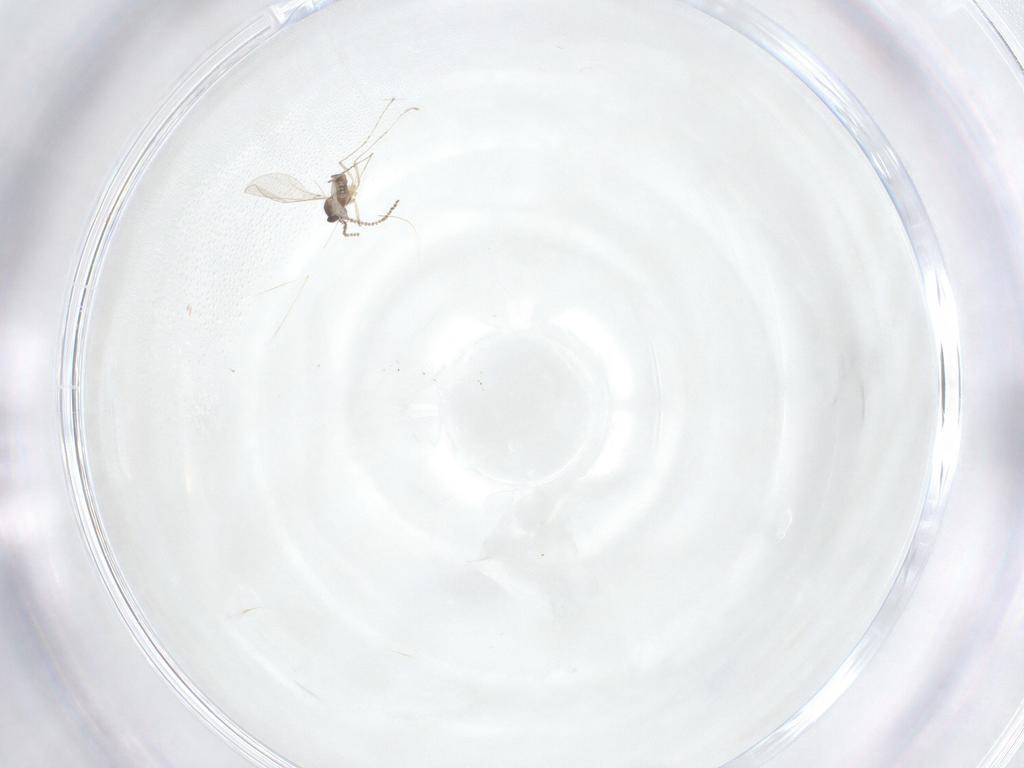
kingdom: Animalia
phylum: Arthropoda
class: Insecta
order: Diptera
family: Cecidomyiidae
